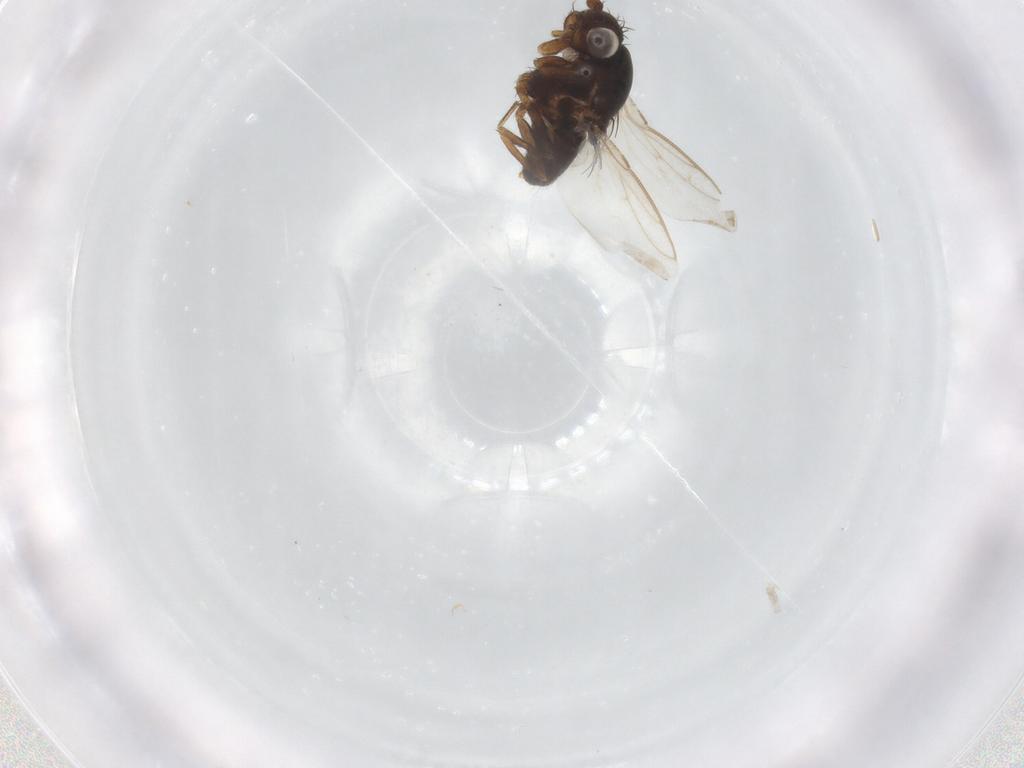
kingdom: Animalia
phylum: Arthropoda
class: Insecta
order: Diptera
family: Sphaeroceridae
